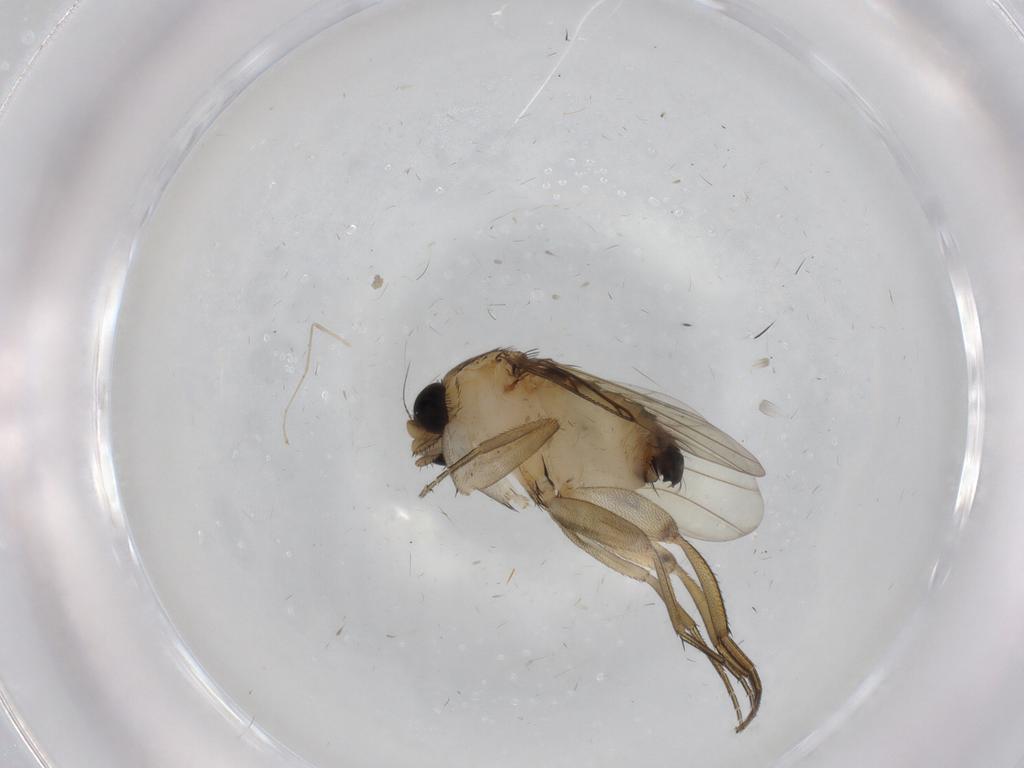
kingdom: Animalia
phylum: Arthropoda
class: Insecta
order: Diptera
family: Phoridae
